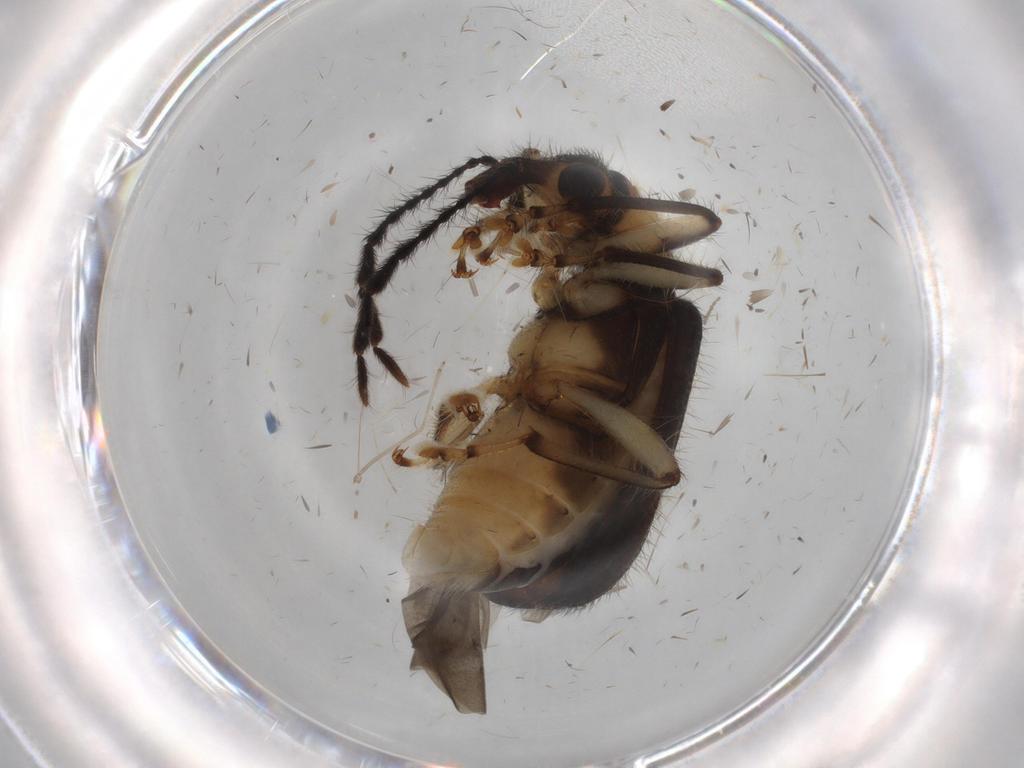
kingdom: Animalia
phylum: Arthropoda
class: Insecta
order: Coleoptera
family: Attelabidae
